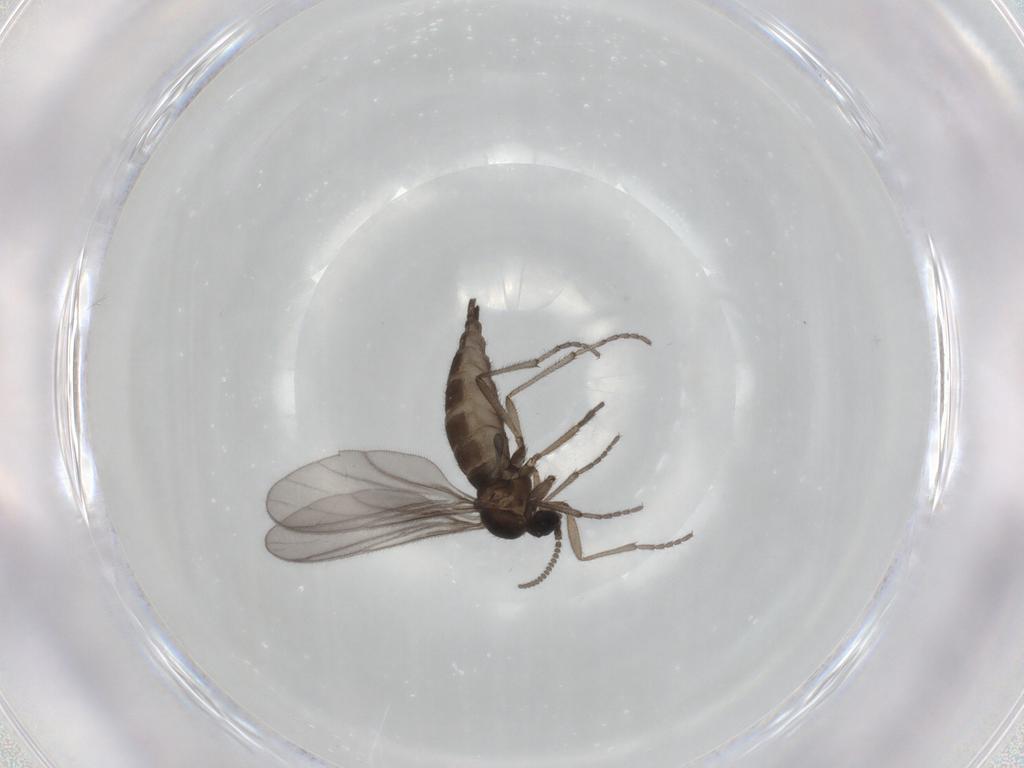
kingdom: Animalia
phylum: Arthropoda
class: Insecta
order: Diptera
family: Sciaridae
